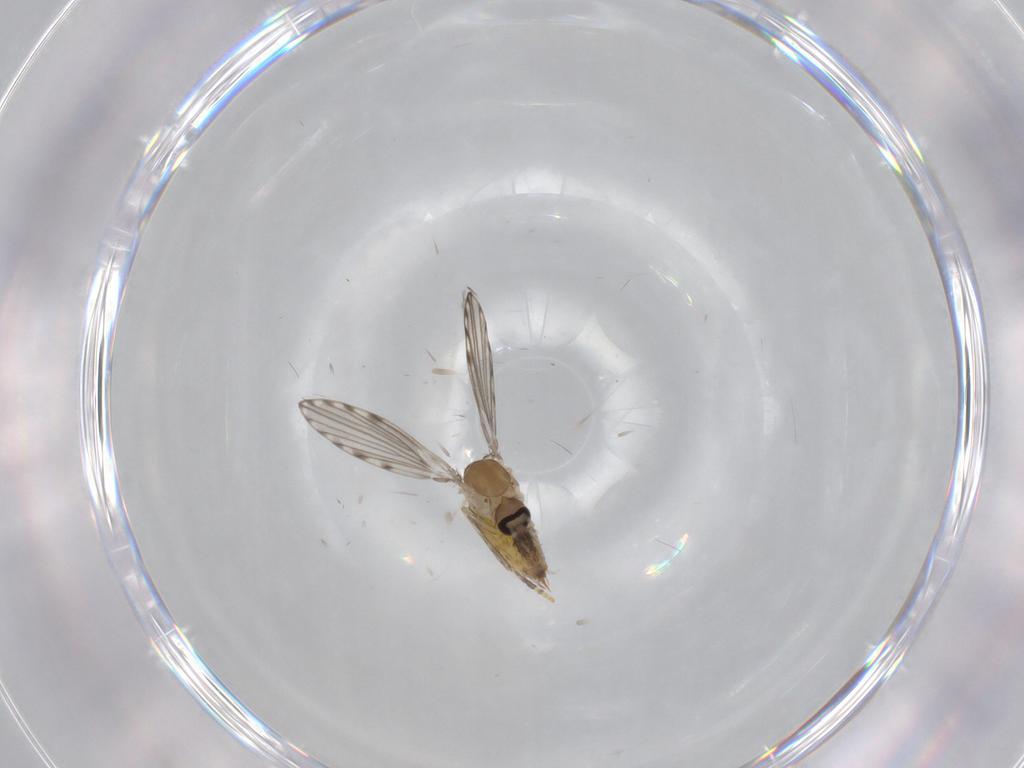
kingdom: Animalia
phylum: Arthropoda
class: Insecta
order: Diptera
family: Psychodidae
